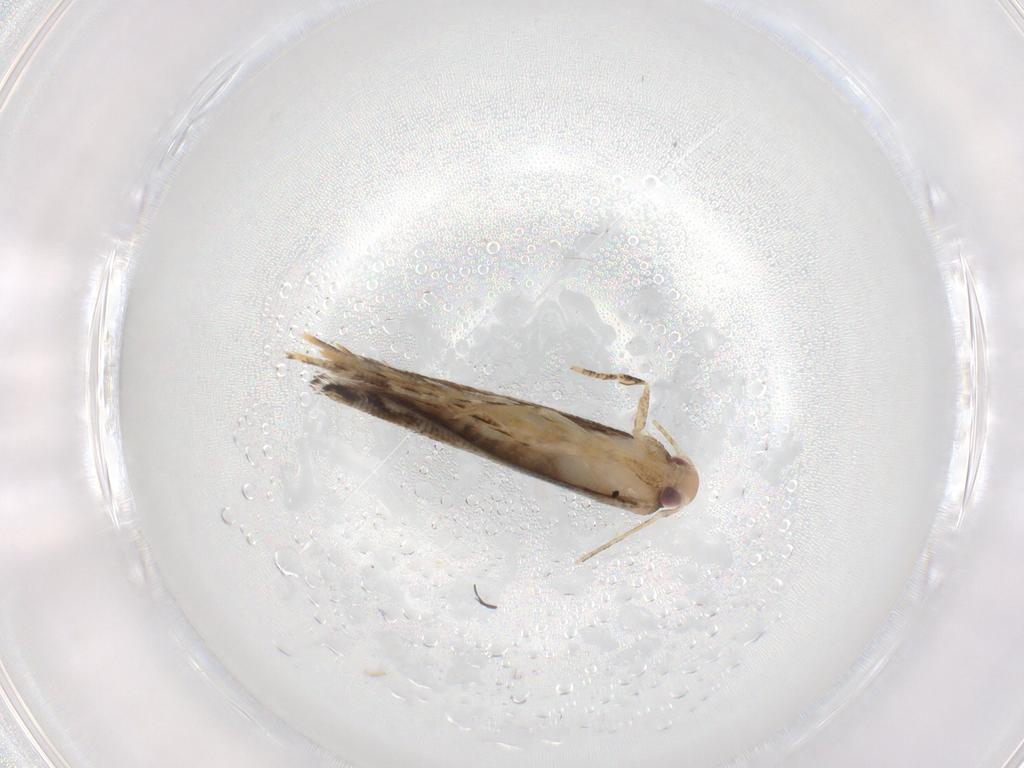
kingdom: Animalia
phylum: Arthropoda
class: Insecta
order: Lepidoptera
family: Momphidae
